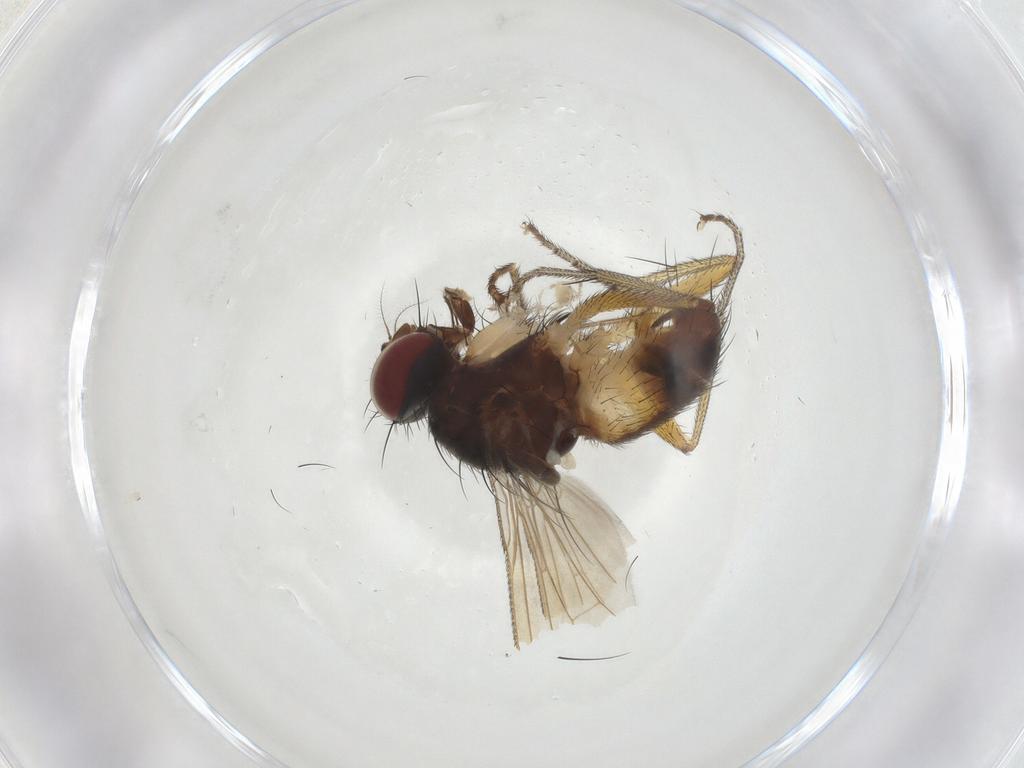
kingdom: Animalia
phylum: Arthropoda
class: Insecta
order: Diptera
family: Muscidae
